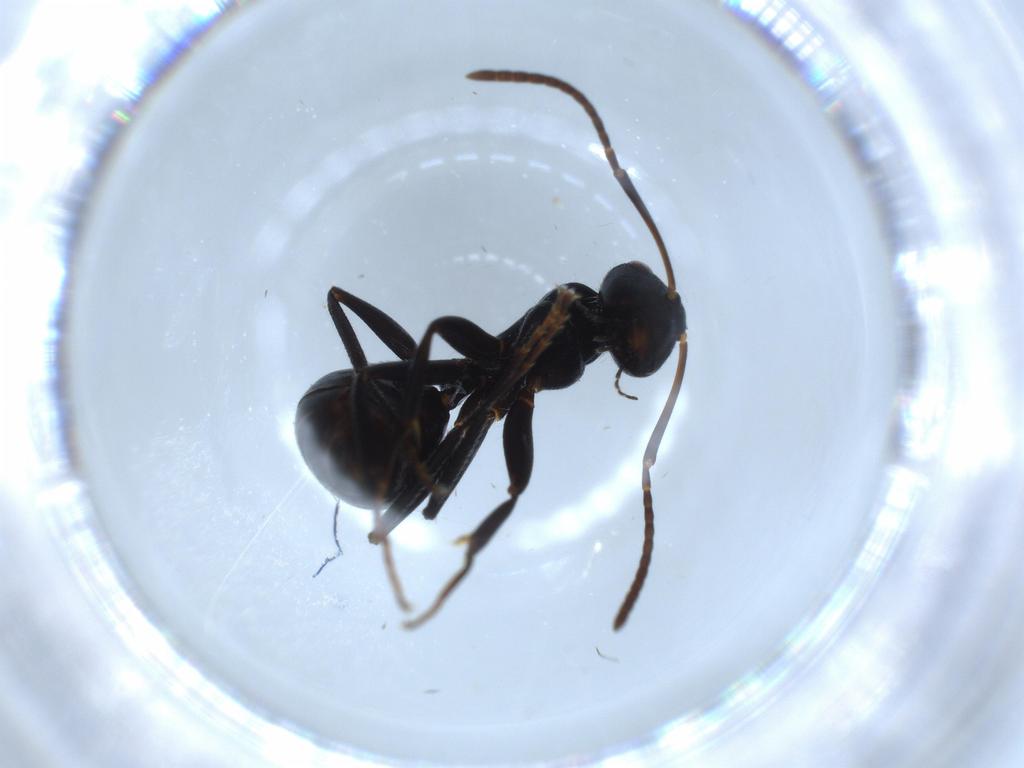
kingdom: Animalia
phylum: Arthropoda
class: Insecta
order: Hymenoptera
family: Formicidae
